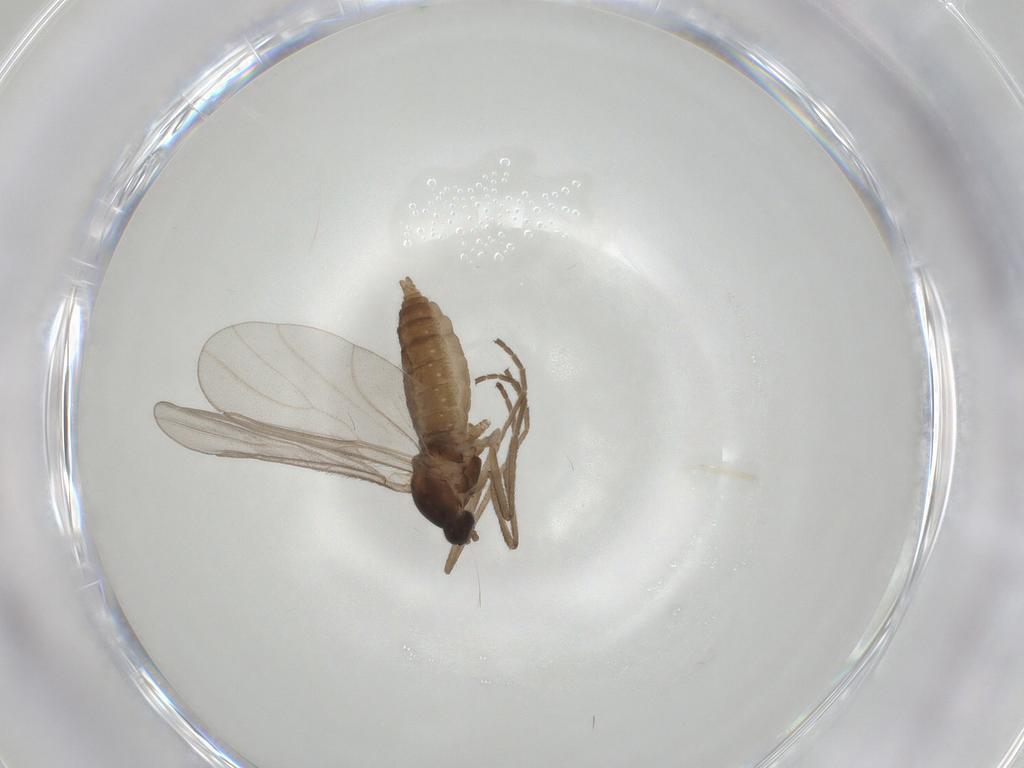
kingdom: Animalia
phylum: Arthropoda
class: Insecta
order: Diptera
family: Cecidomyiidae
